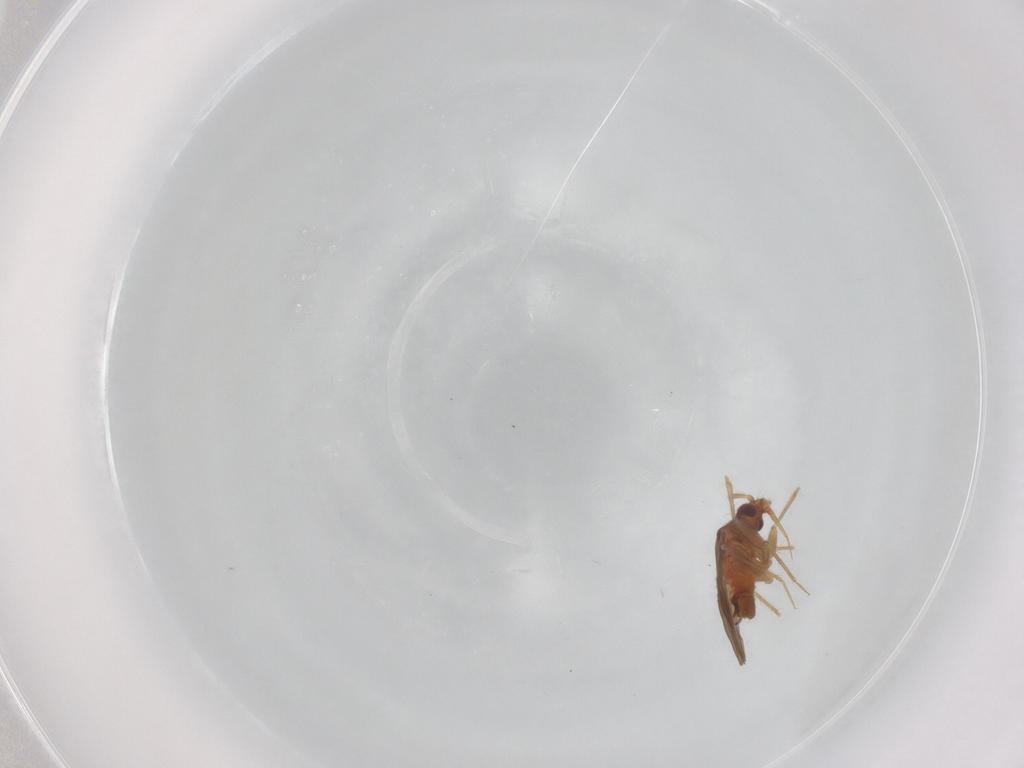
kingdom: Animalia
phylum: Arthropoda
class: Insecta
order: Hemiptera
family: Ceratocombidae
